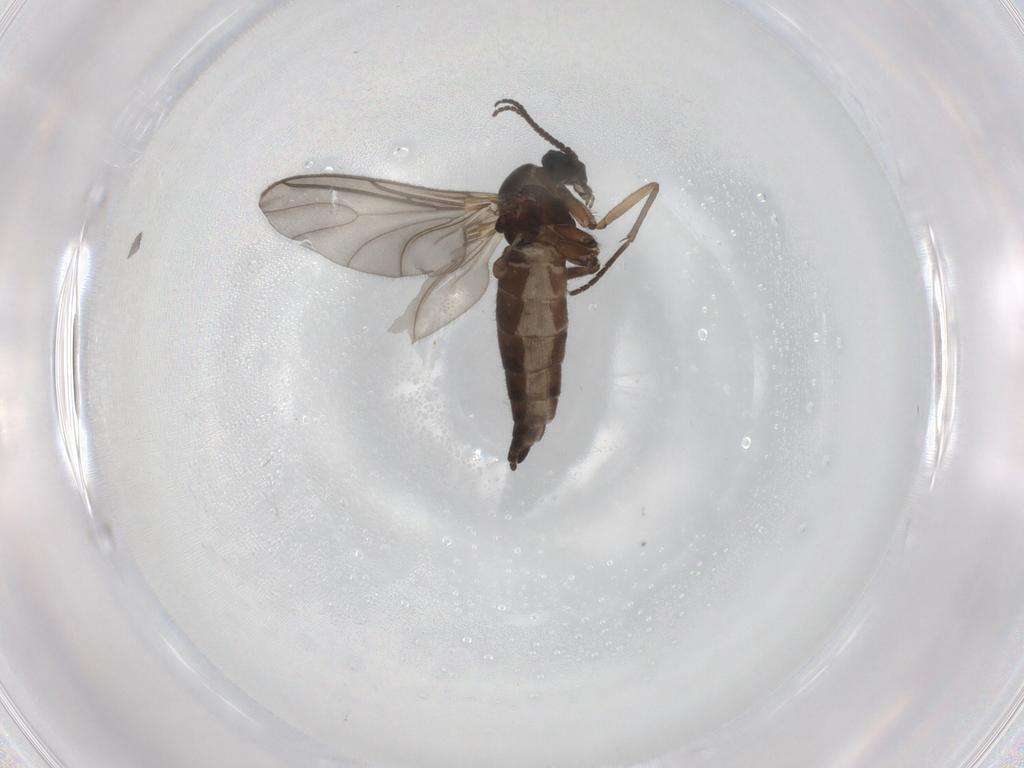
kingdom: Animalia
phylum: Arthropoda
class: Insecta
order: Diptera
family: Sciaridae
